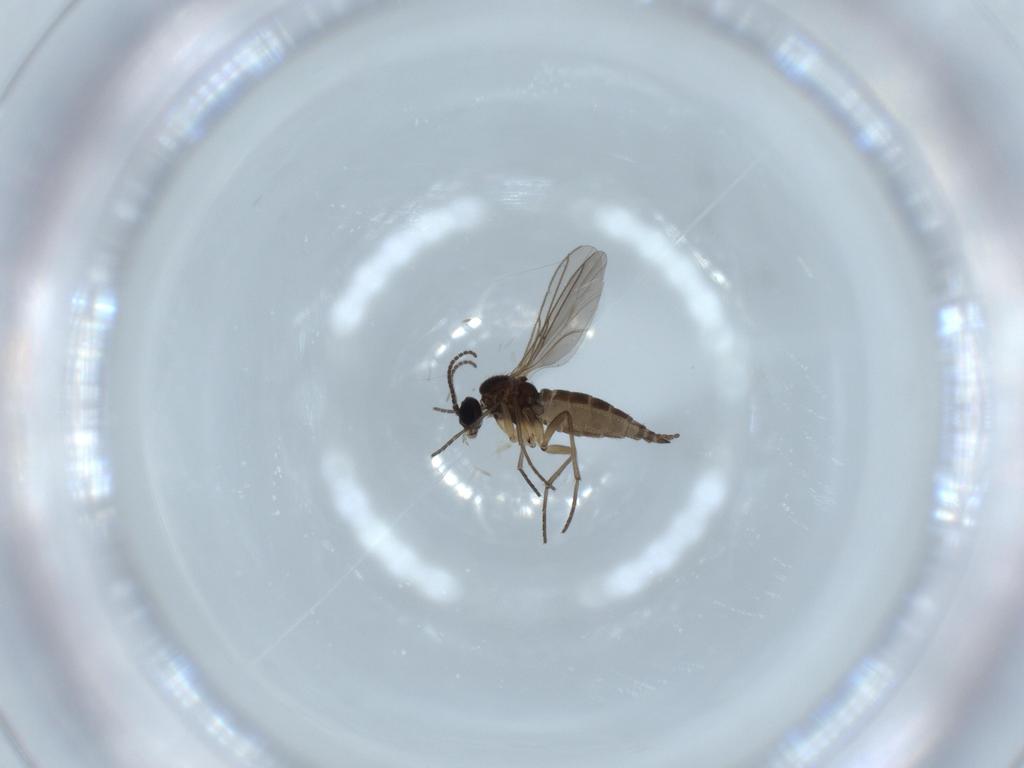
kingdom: Animalia
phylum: Arthropoda
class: Insecta
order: Diptera
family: Sciaridae
